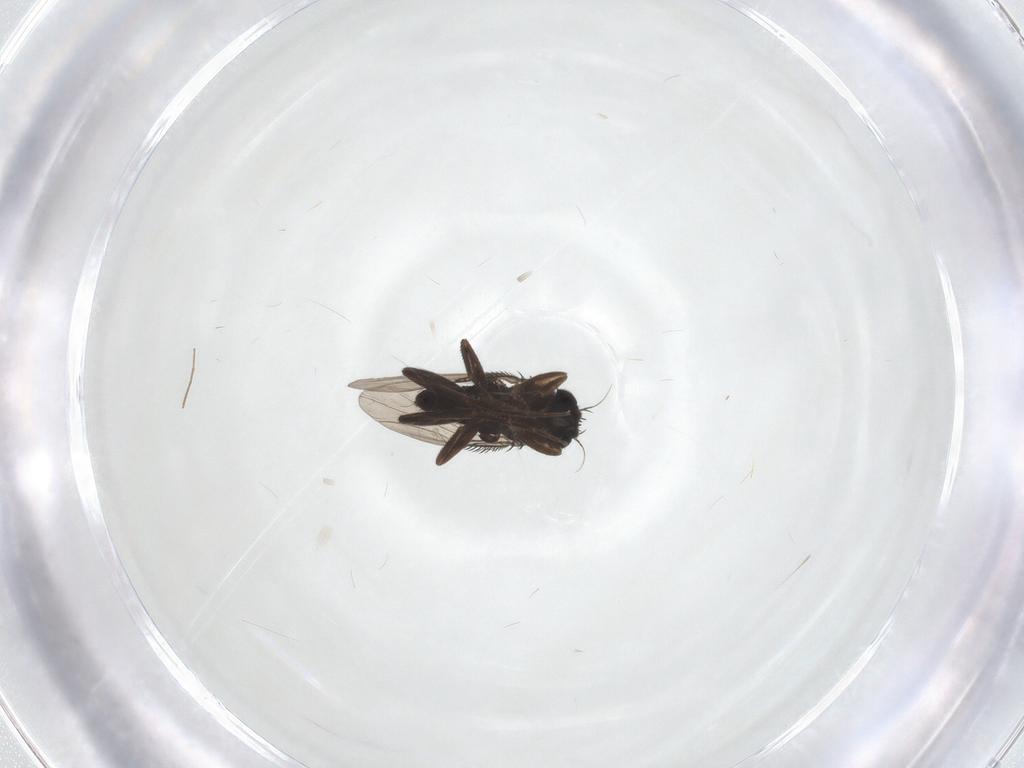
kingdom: Animalia
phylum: Arthropoda
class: Insecta
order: Diptera
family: Phoridae
